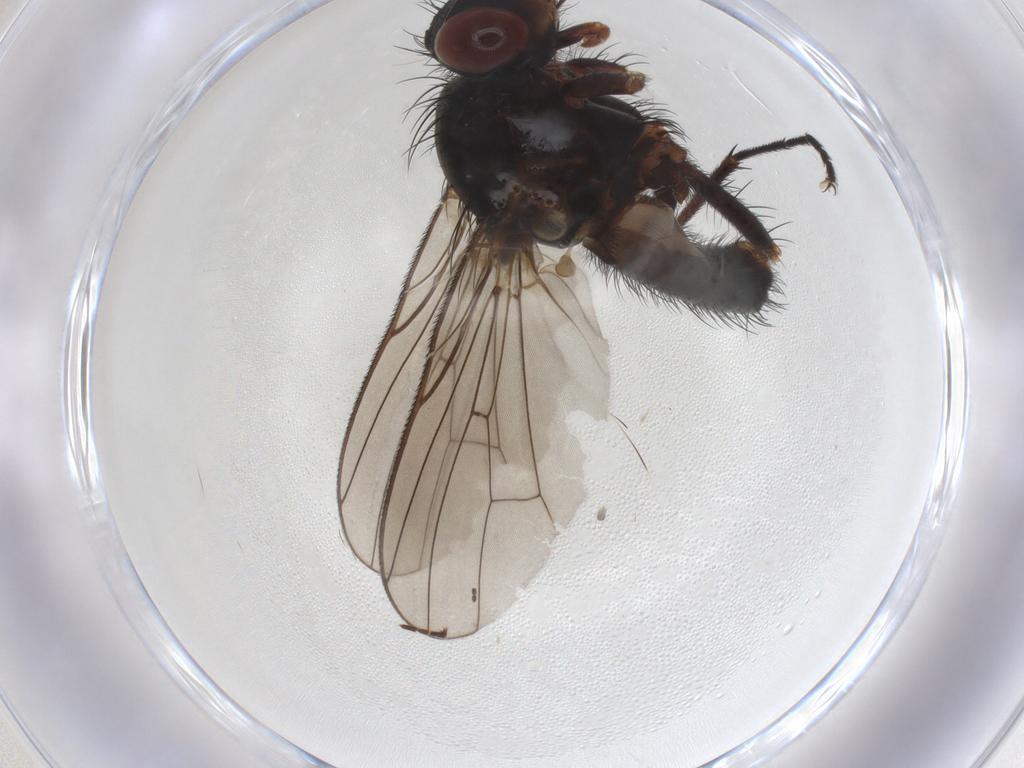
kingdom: Animalia
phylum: Arthropoda
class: Insecta
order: Diptera
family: Anthomyiidae
